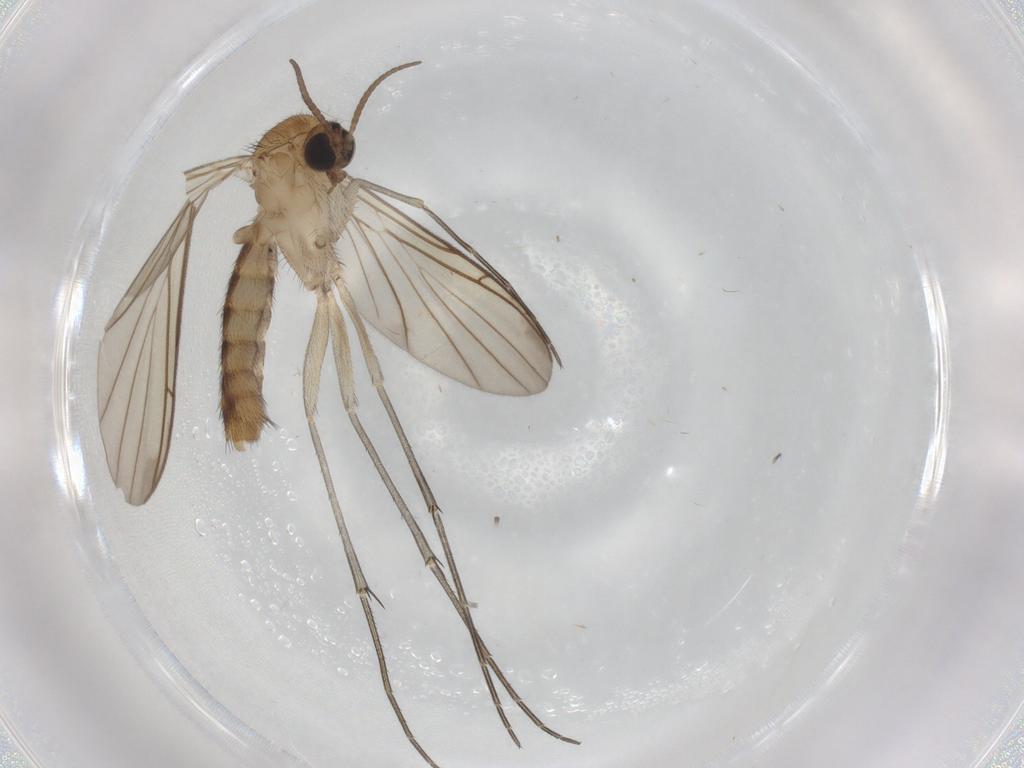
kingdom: Animalia
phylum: Arthropoda
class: Insecta
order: Diptera
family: Keroplatidae
